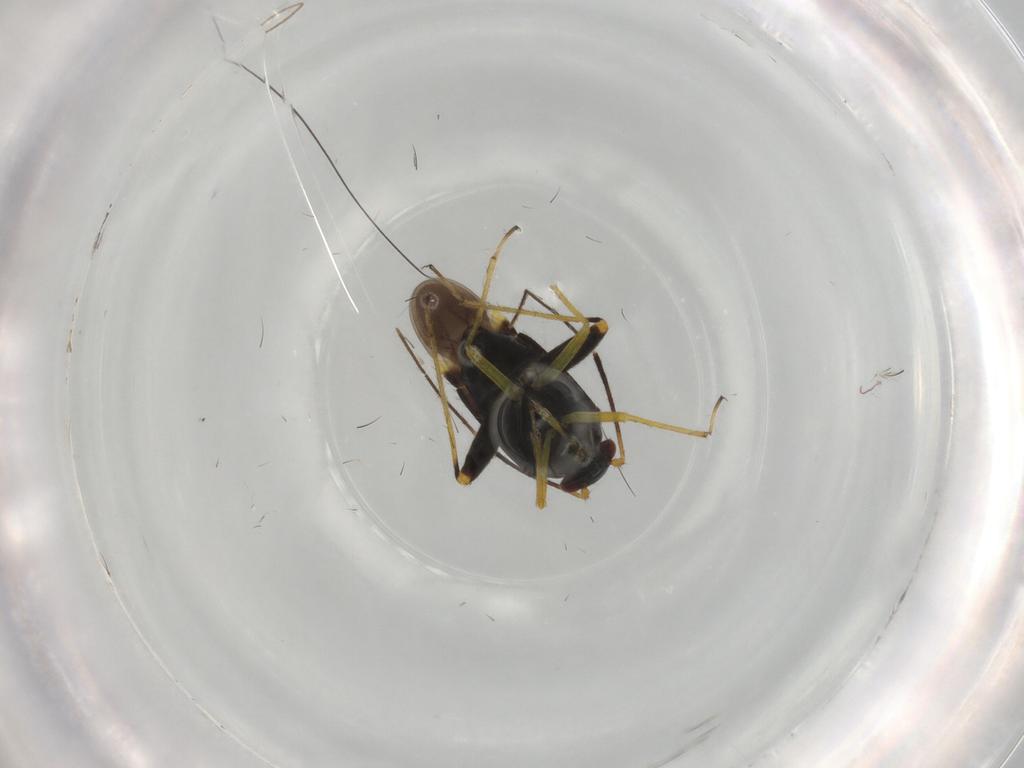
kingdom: Animalia
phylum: Arthropoda
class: Insecta
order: Hemiptera
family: Miridae
